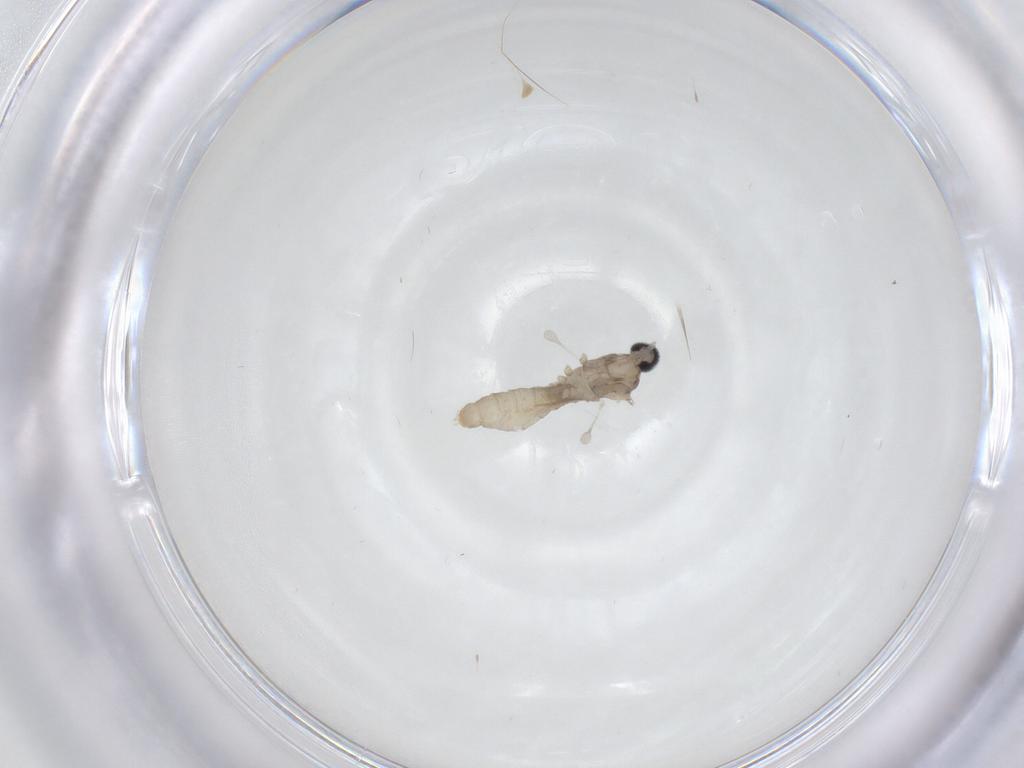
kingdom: Animalia
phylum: Arthropoda
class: Insecta
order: Diptera
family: Cecidomyiidae
